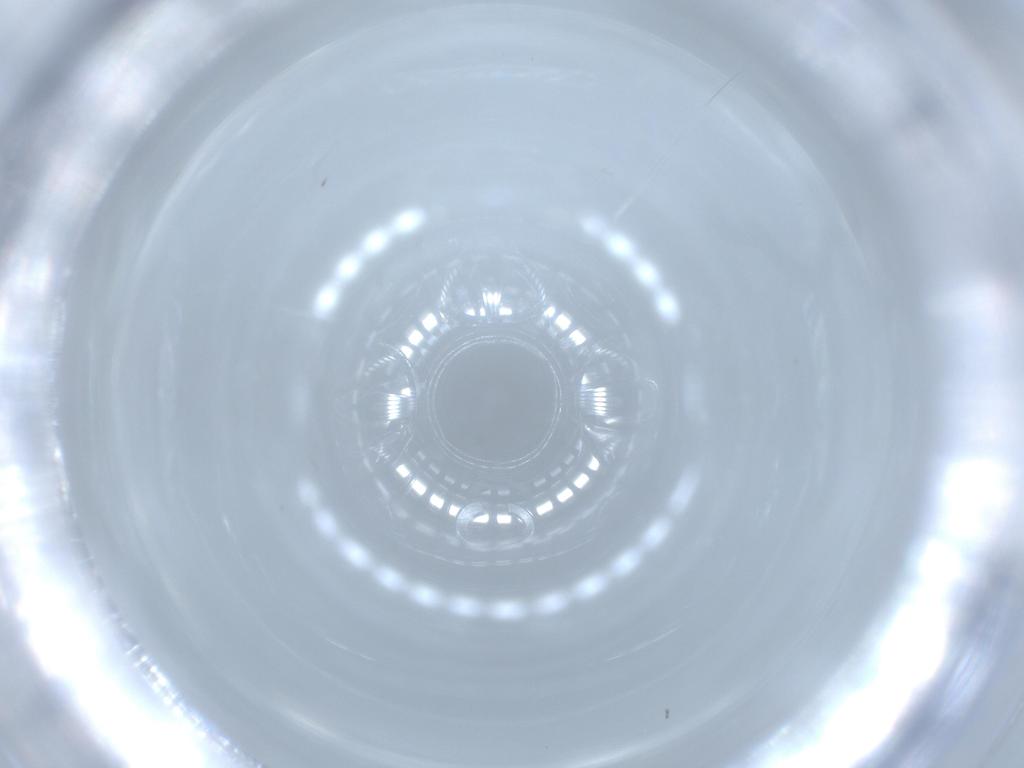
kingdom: Animalia
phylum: Arthropoda
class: Insecta
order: Diptera
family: Cecidomyiidae
